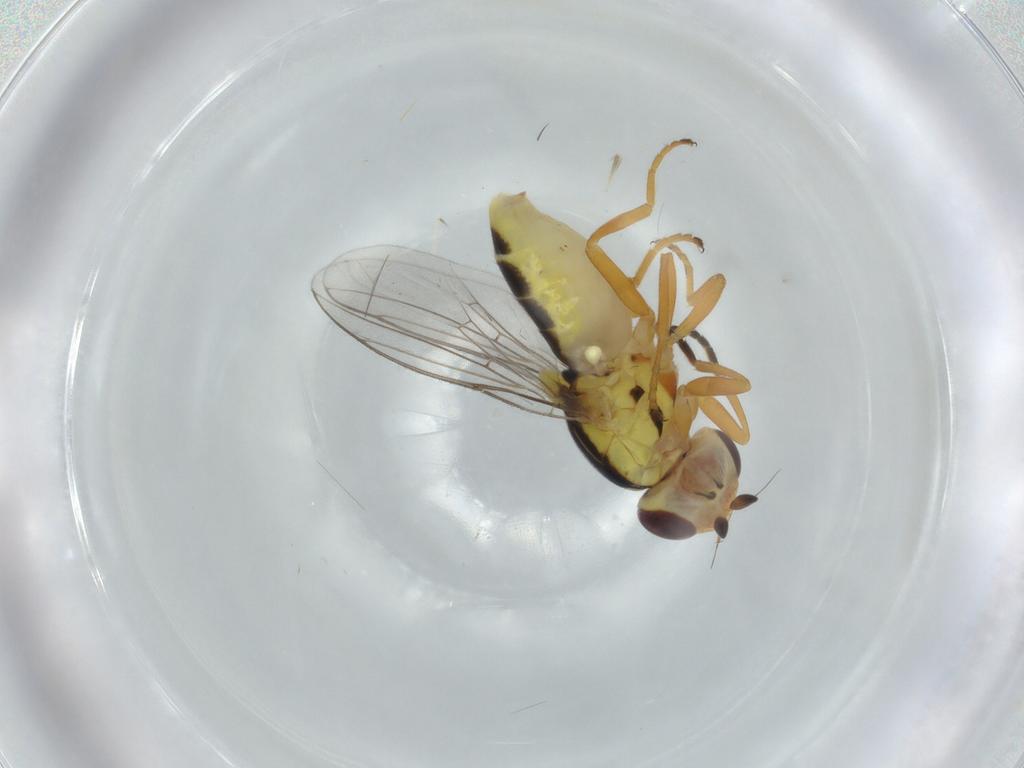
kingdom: Animalia
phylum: Arthropoda
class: Insecta
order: Diptera
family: Chloropidae
